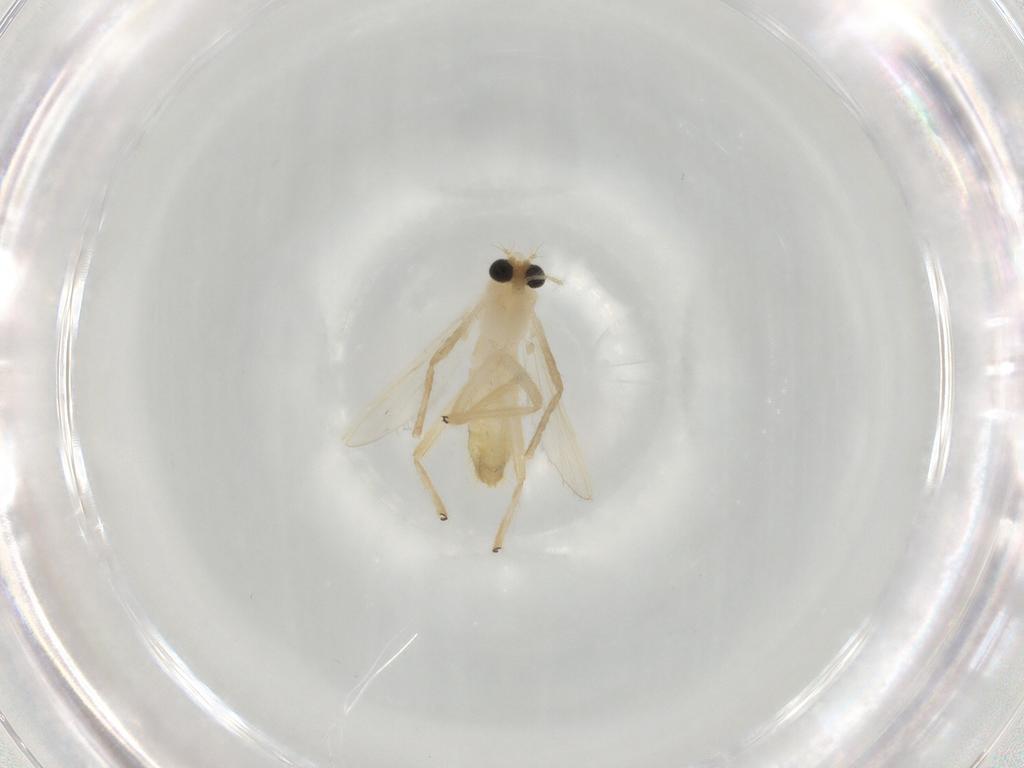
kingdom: Animalia
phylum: Arthropoda
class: Insecta
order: Diptera
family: Chironomidae
